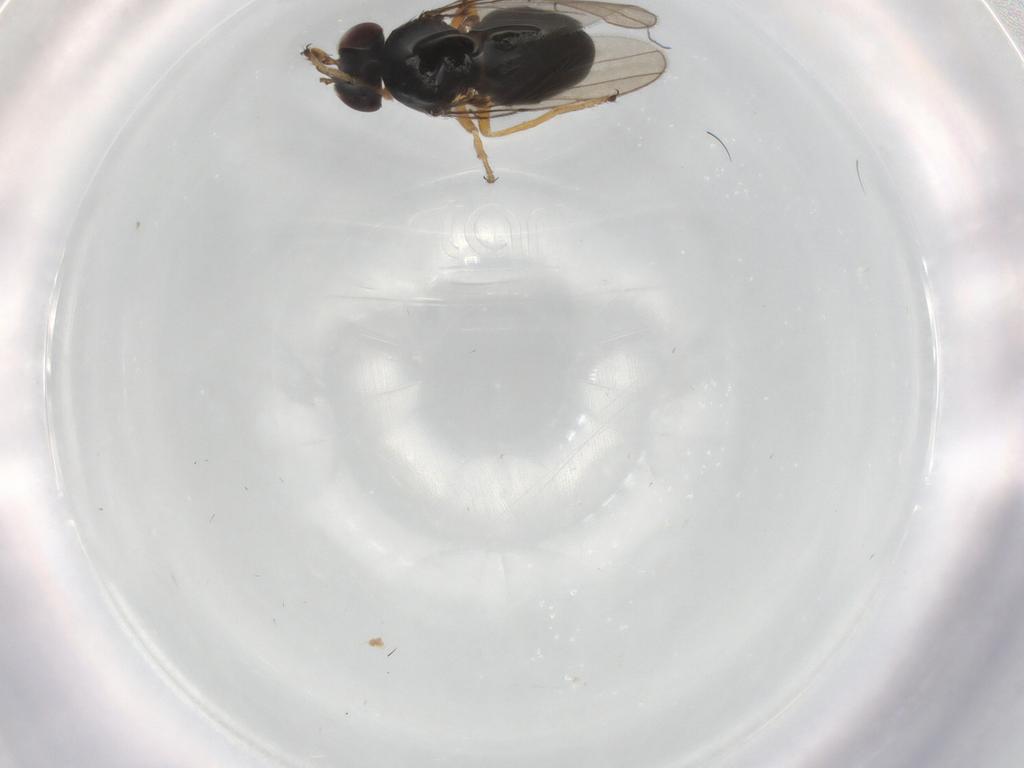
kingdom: Animalia
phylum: Arthropoda
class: Insecta
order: Diptera
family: Ephydridae
